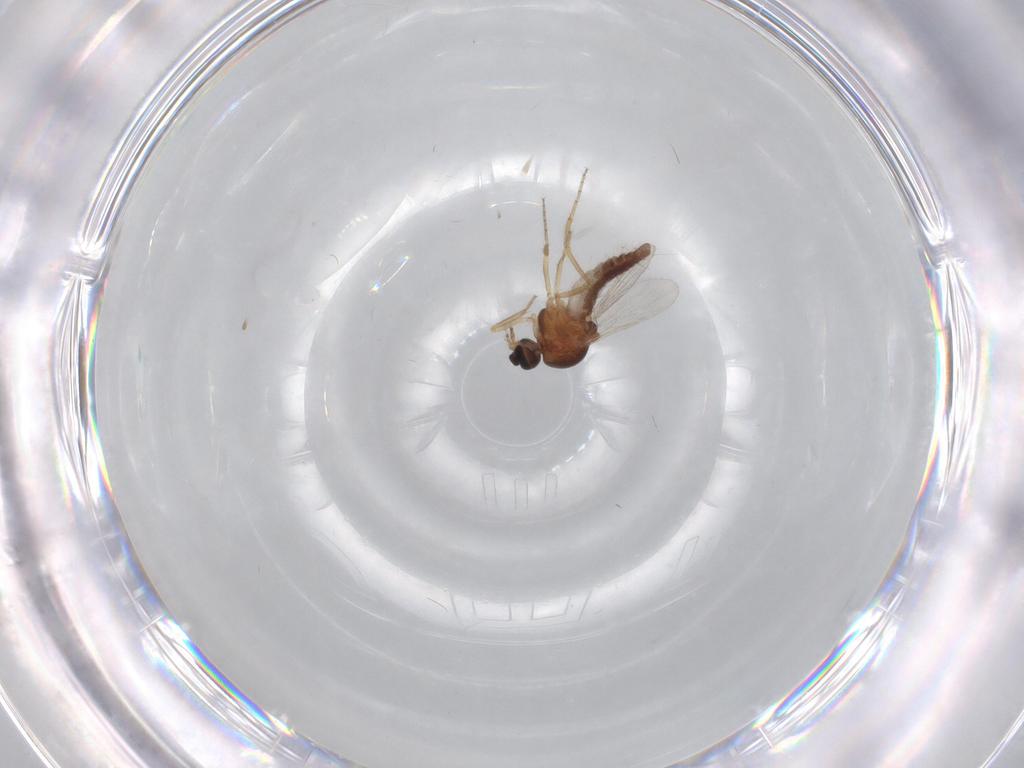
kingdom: Animalia
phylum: Arthropoda
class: Insecta
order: Diptera
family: Ceratopogonidae
